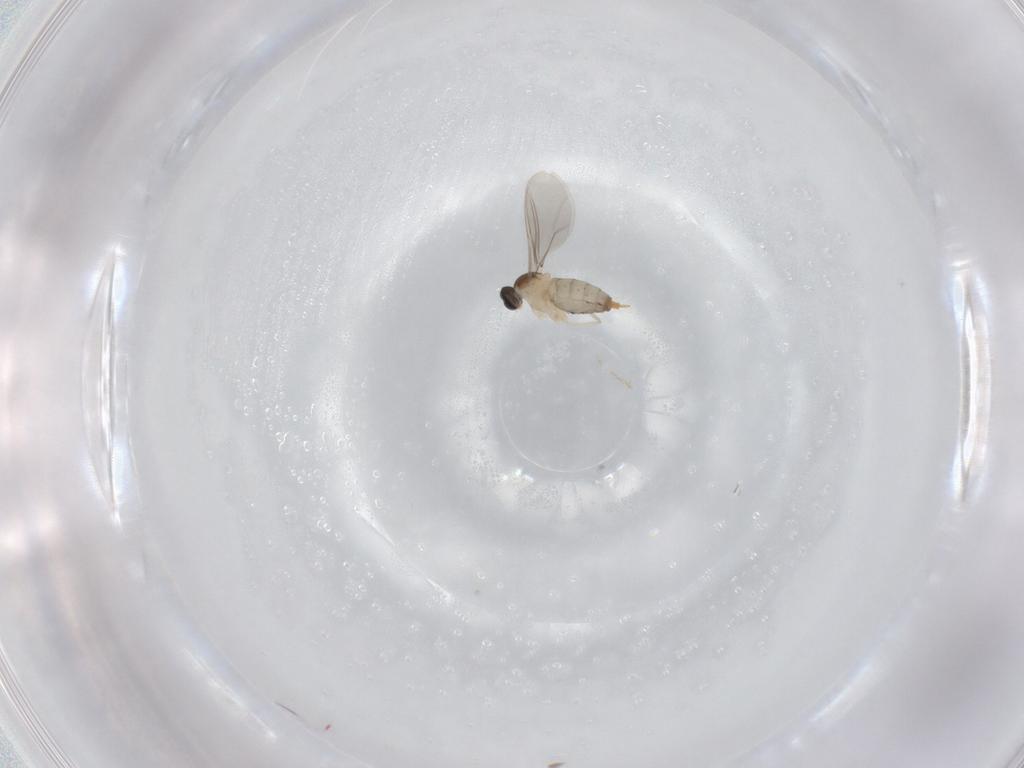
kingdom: Animalia
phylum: Arthropoda
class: Insecta
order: Diptera
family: Cecidomyiidae
